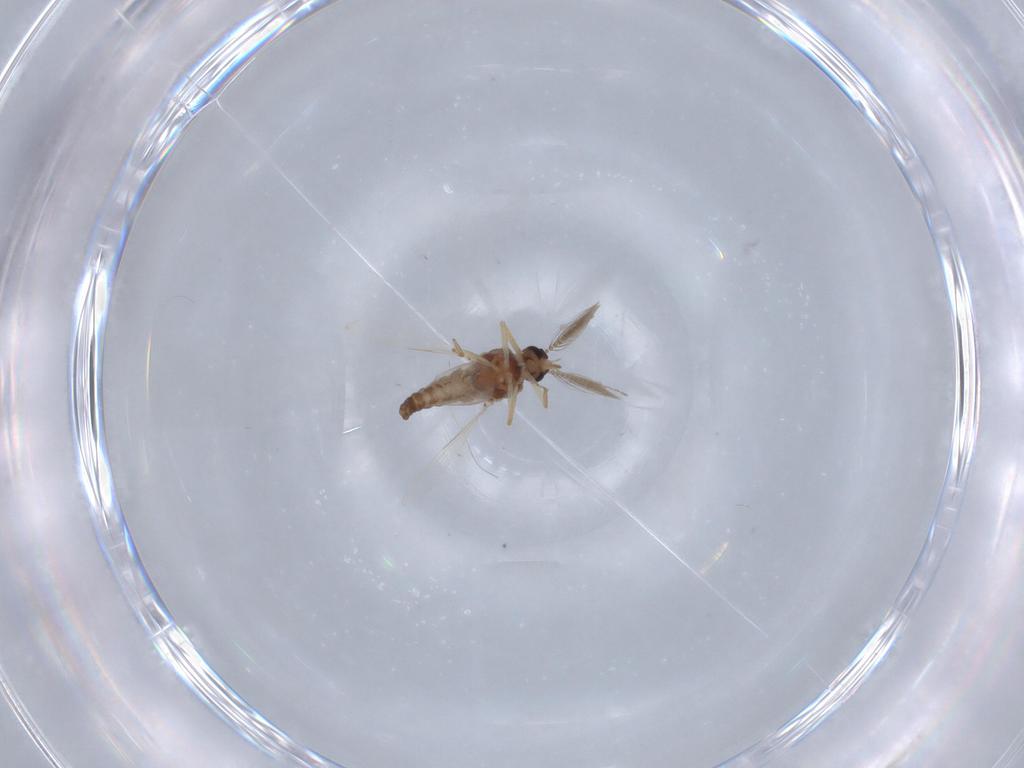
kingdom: Animalia
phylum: Arthropoda
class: Insecta
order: Diptera
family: Ceratopogonidae
